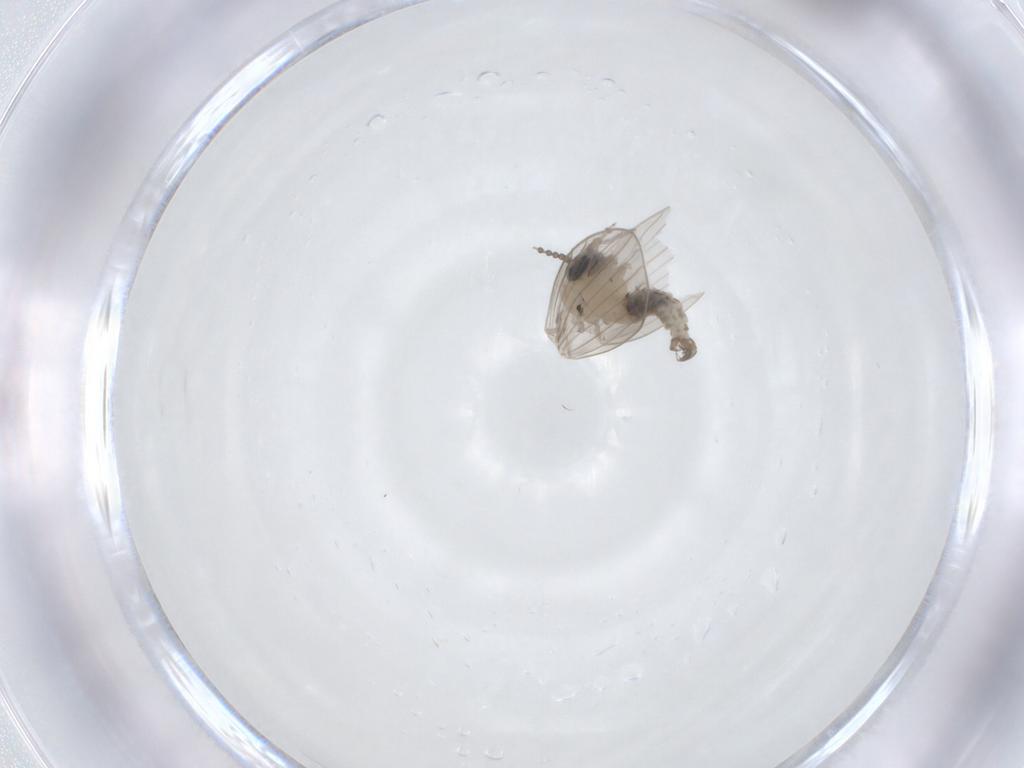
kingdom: Animalia
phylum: Arthropoda
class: Insecta
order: Diptera
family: Psychodidae
